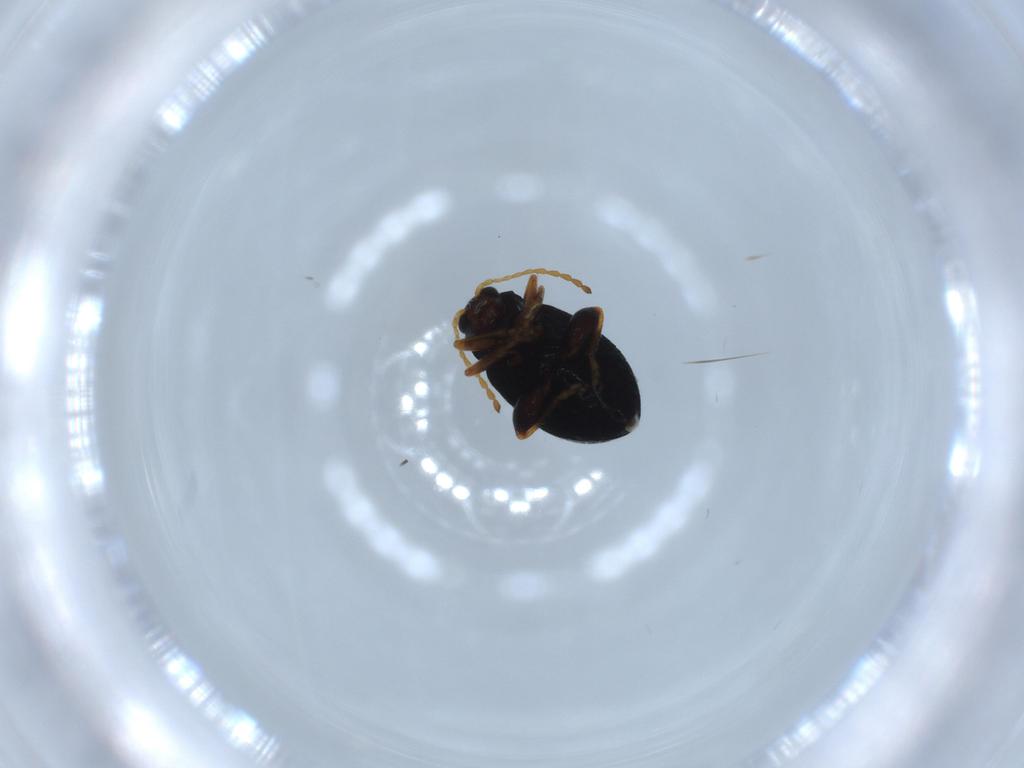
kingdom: Animalia
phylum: Arthropoda
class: Insecta
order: Coleoptera
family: Chrysomelidae
